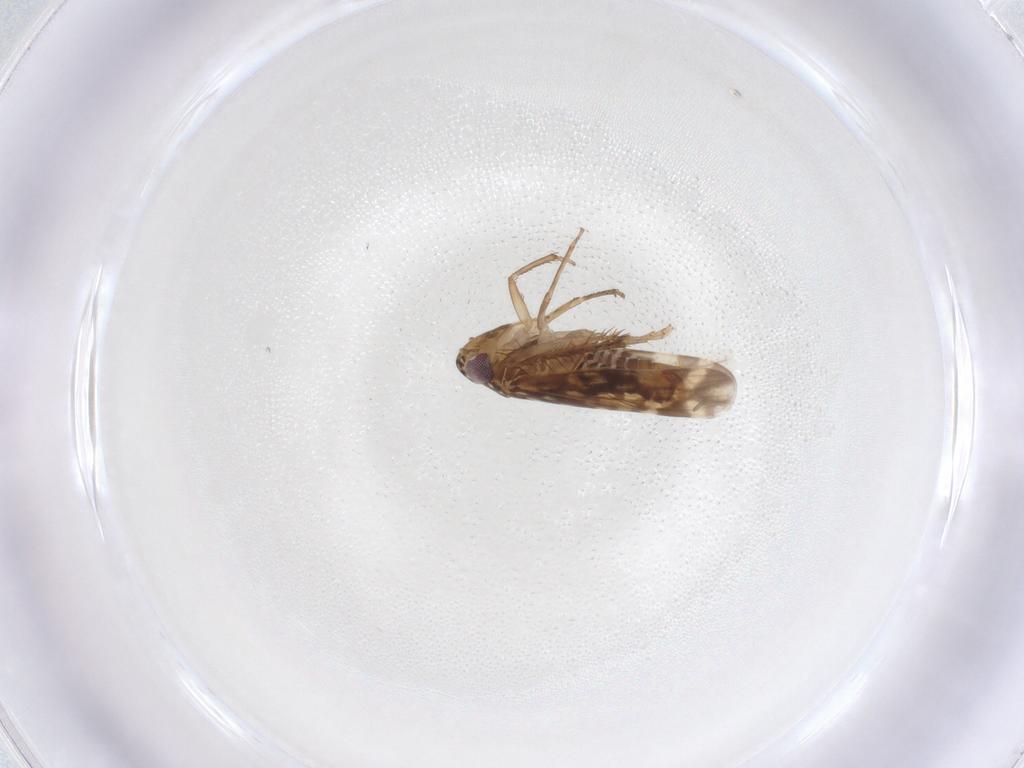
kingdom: Animalia
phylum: Arthropoda
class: Insecta
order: Hemiptera
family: Cicadellidae
